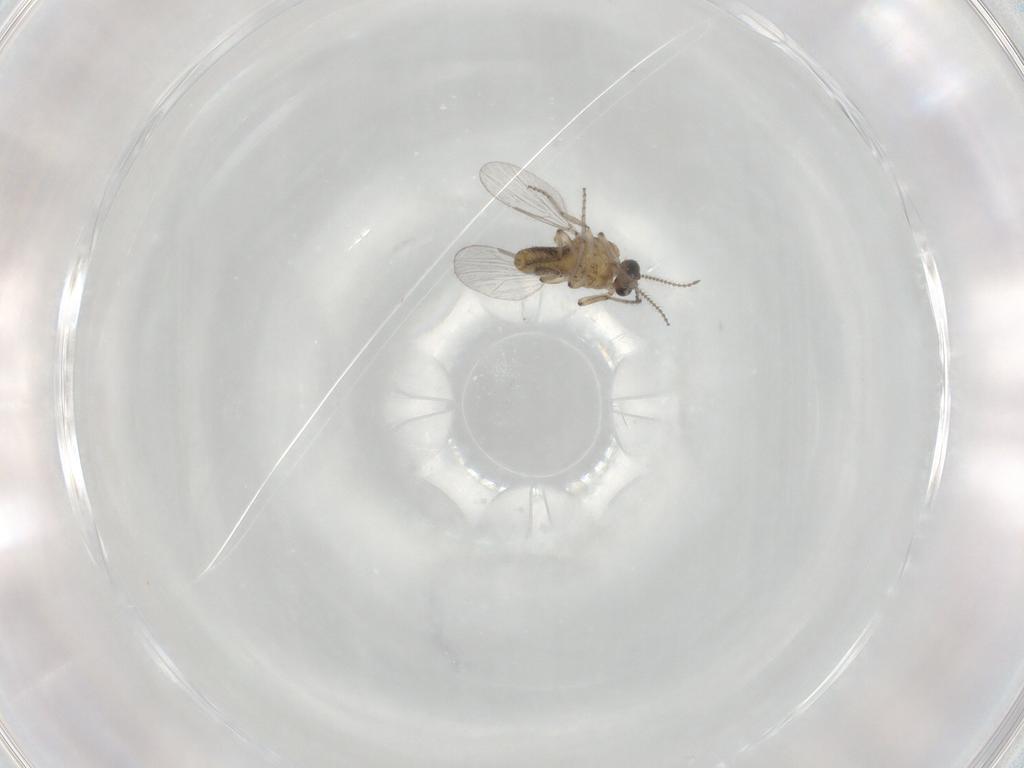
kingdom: Animalia
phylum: Arthropoda
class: Insecta
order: Diptera
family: Ceratopogonidae
